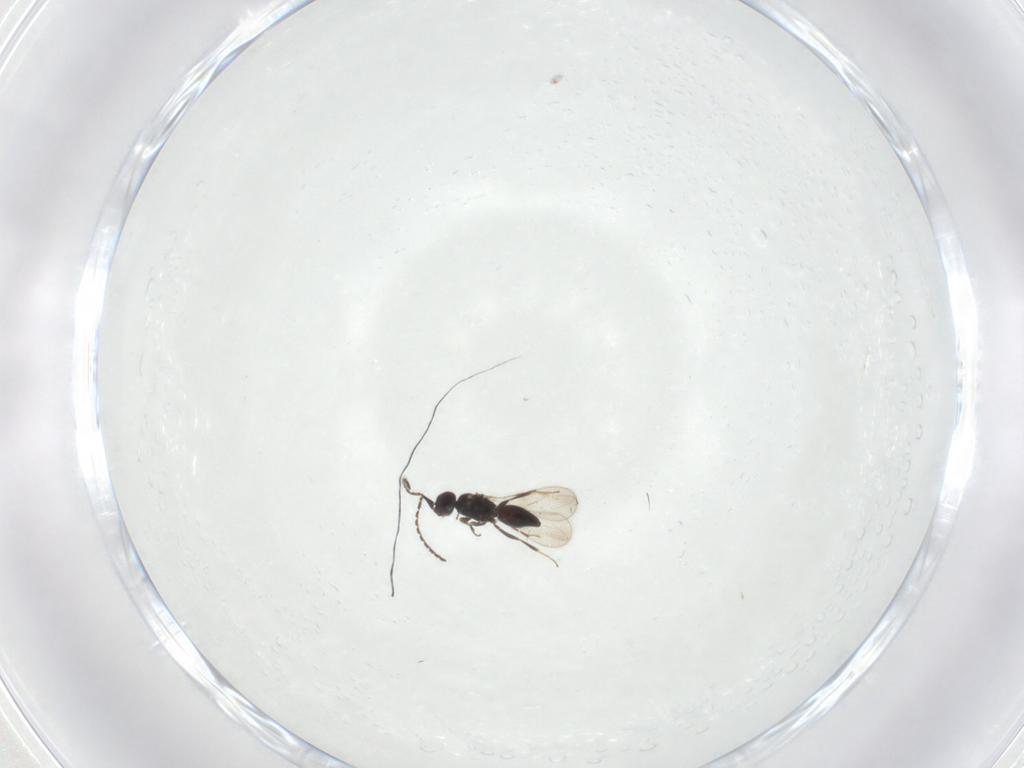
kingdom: Animalia
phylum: Arthropoda
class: Insecta
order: Hymenoptera
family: Ceraphronidae
